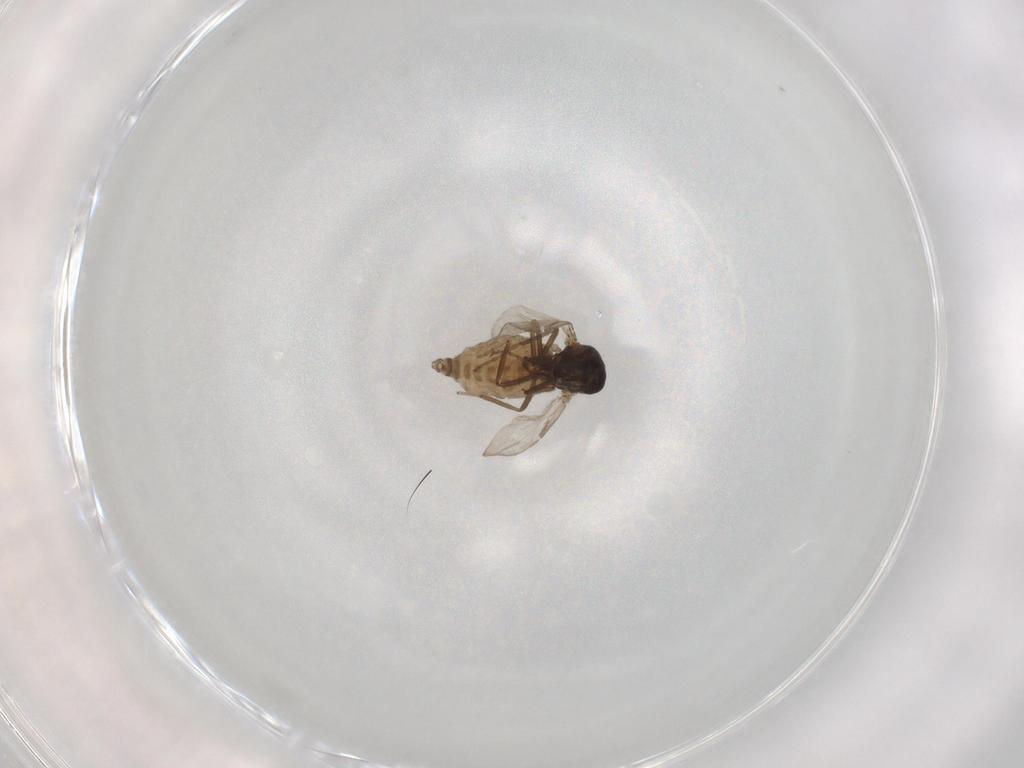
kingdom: Animalia
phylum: Arthropoda
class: Insecta
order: Diptera
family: Ceratopogonidae
